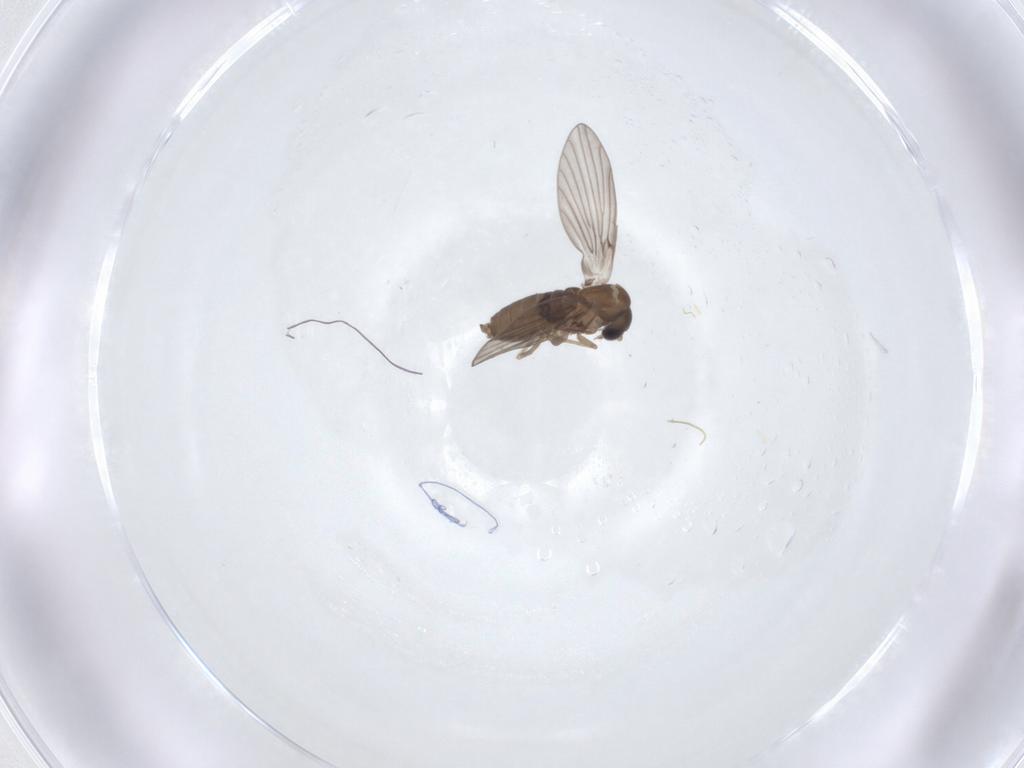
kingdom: Animalia
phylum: Arthropoda
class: Insecta
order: Diptera
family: Psychodidae
